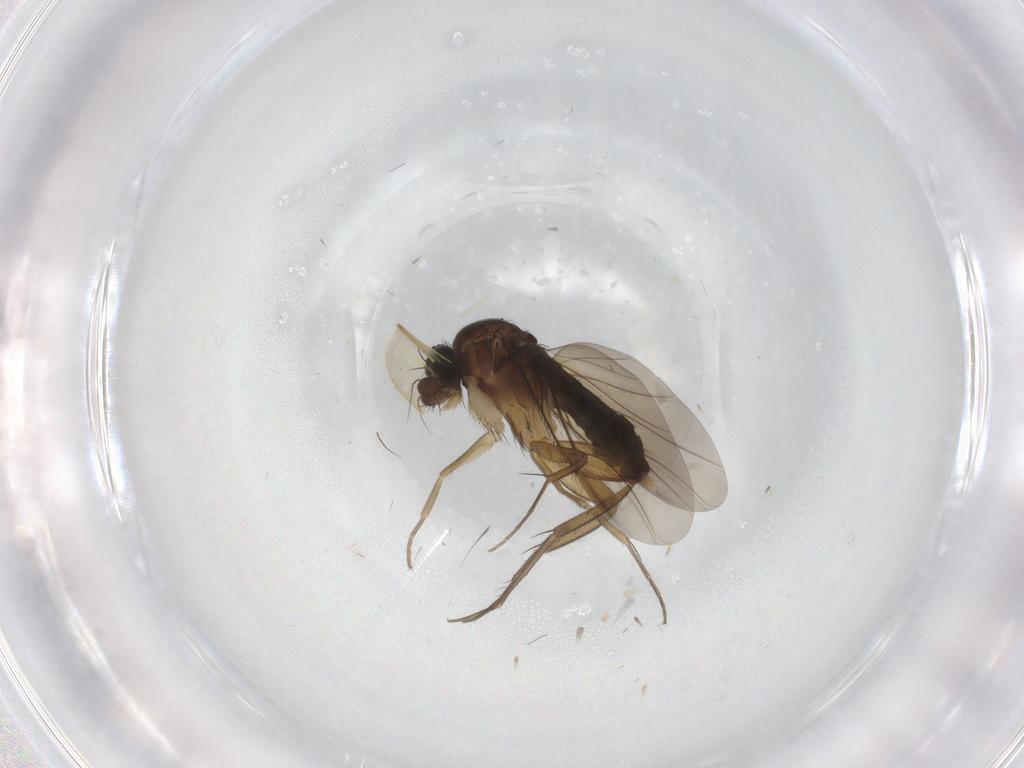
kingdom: Animalia
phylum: Arthropoda
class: Insecta
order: Diptera
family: Phoridae
